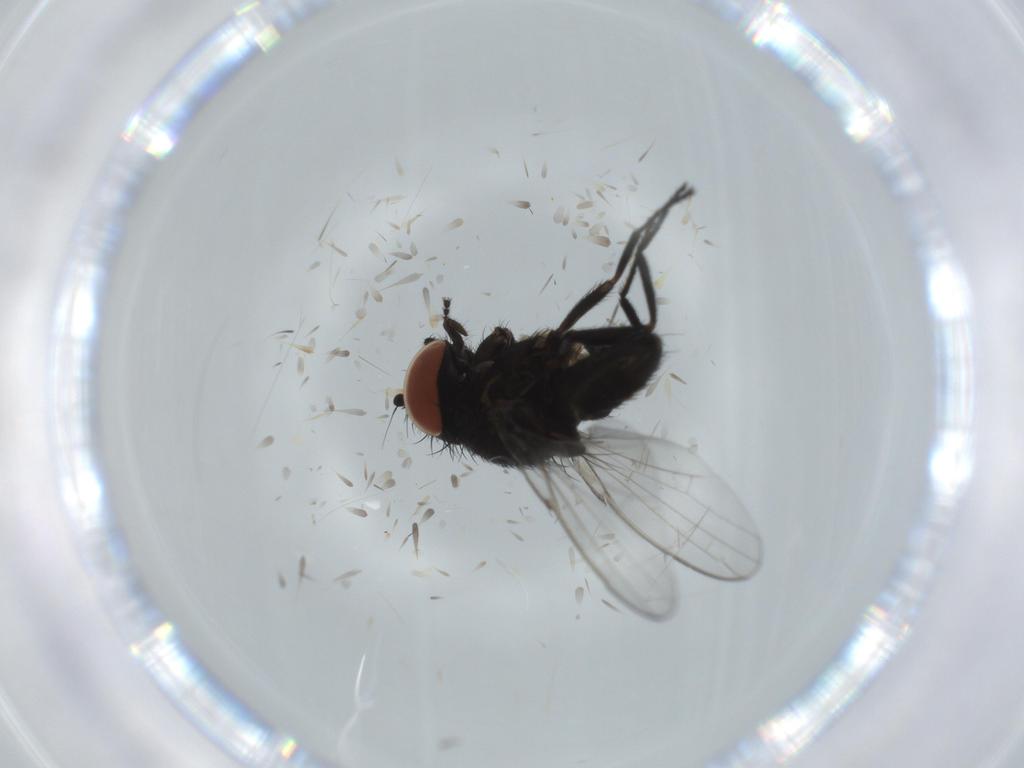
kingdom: Animalia
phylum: Arthropoda
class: Insecta
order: Diptera
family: Milichiidae
